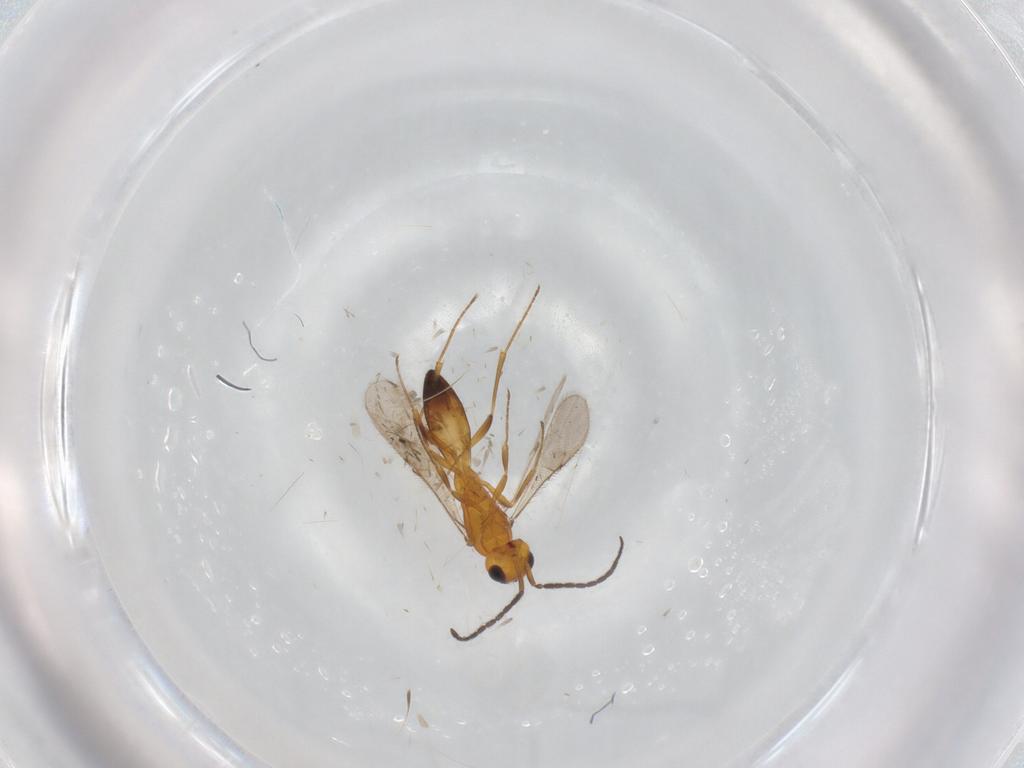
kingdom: Animalia
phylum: Arthropoda
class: Insecta
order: Hymenoptera
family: Scelionidae
